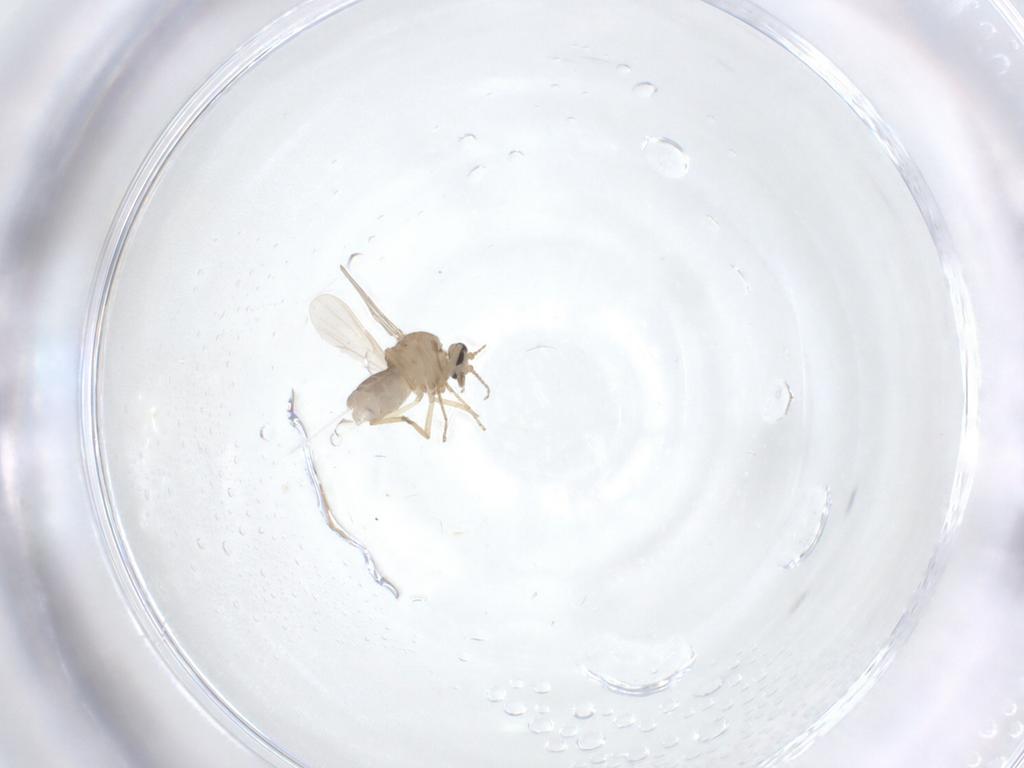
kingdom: Animalia
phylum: Arthropoda
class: Insecta
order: Diptera
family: Ceratopogonidae
